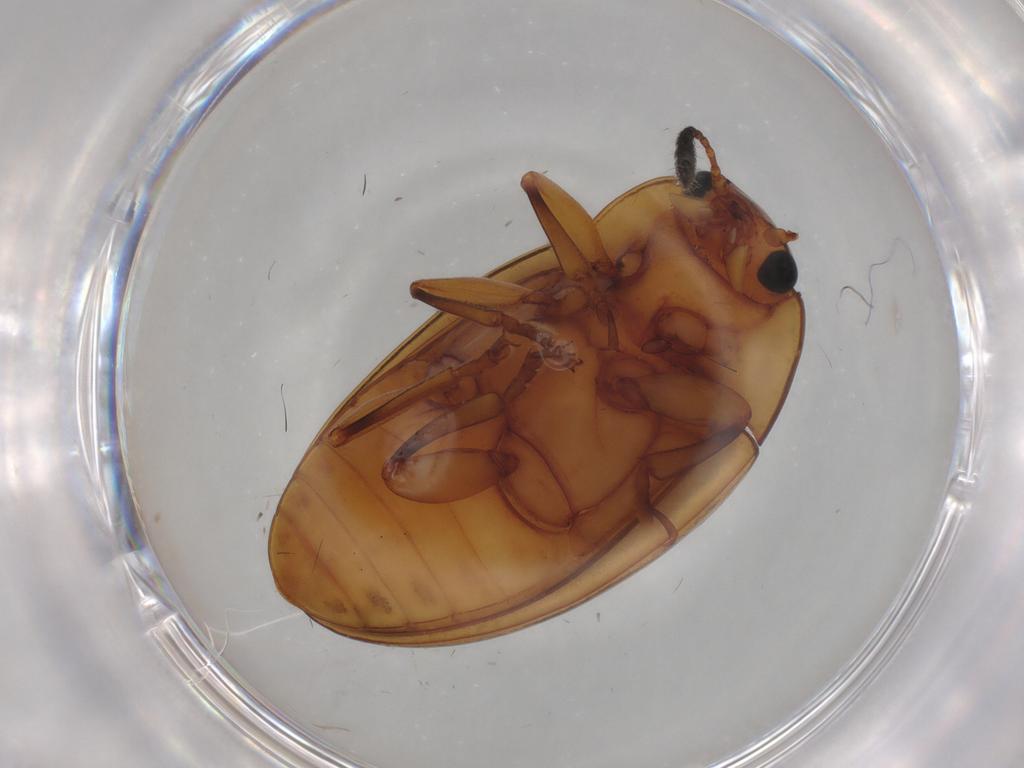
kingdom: Animalia
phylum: Arthropoda
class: Insecta
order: Coleoptera
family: Erotylidae
